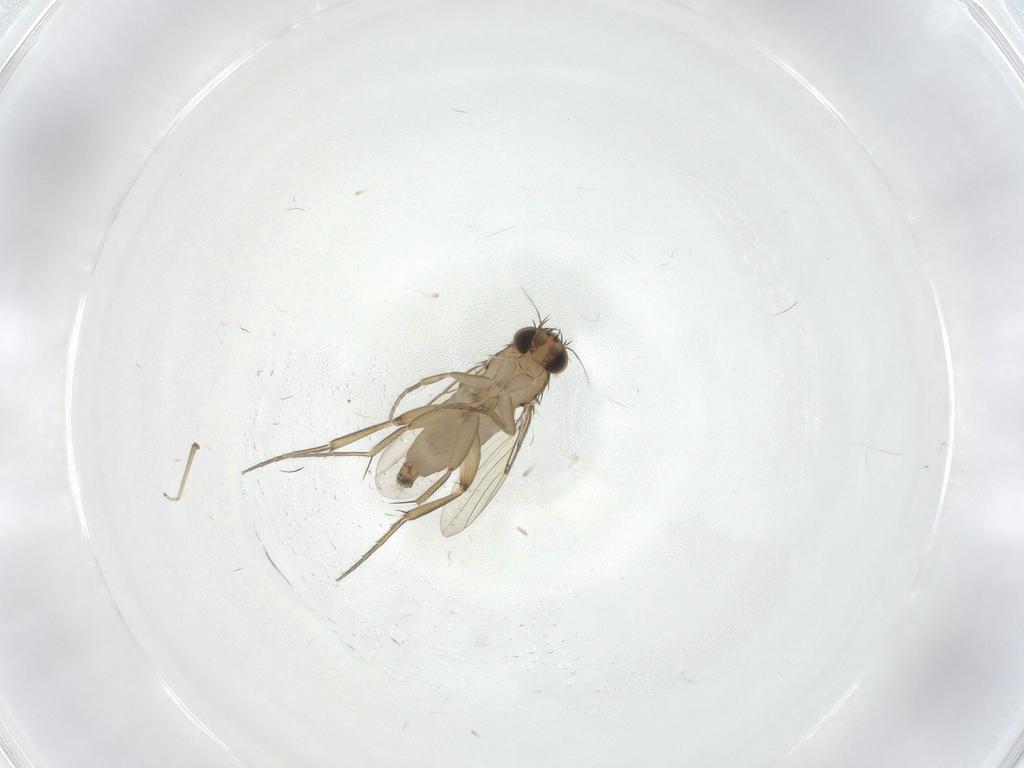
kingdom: Animalia
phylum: Arthropoda
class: Insecta
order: Diptera
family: Phoridae
